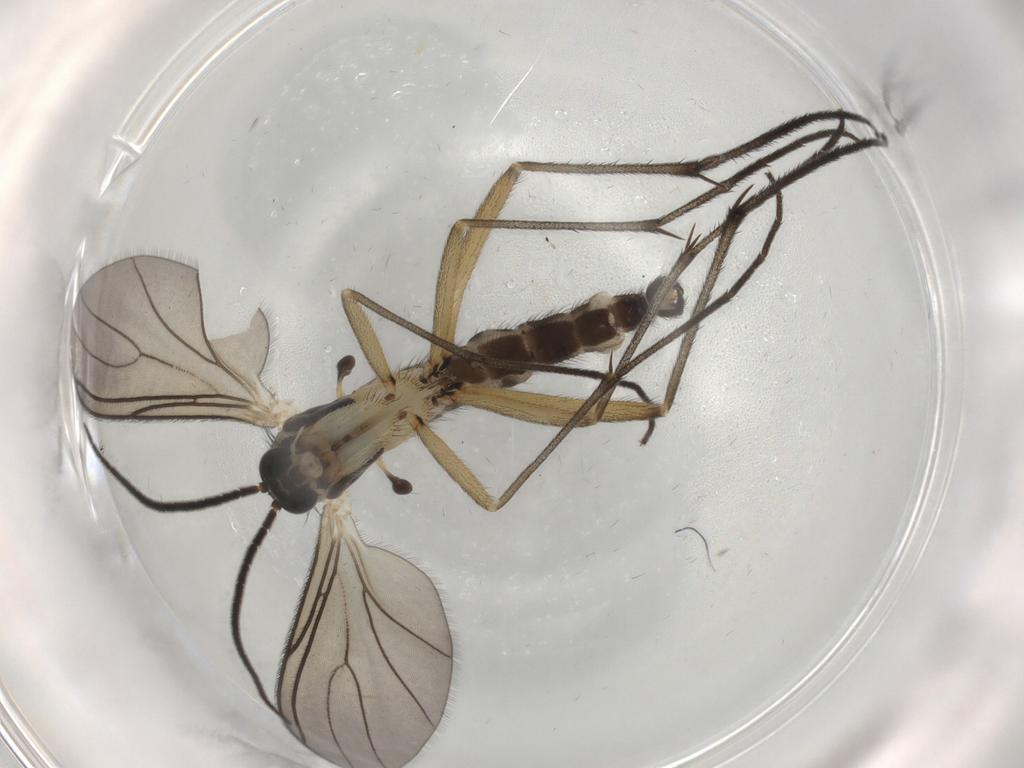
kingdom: Animalia
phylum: Arthropoda
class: Insecta
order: Diptera
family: Sciaridae
